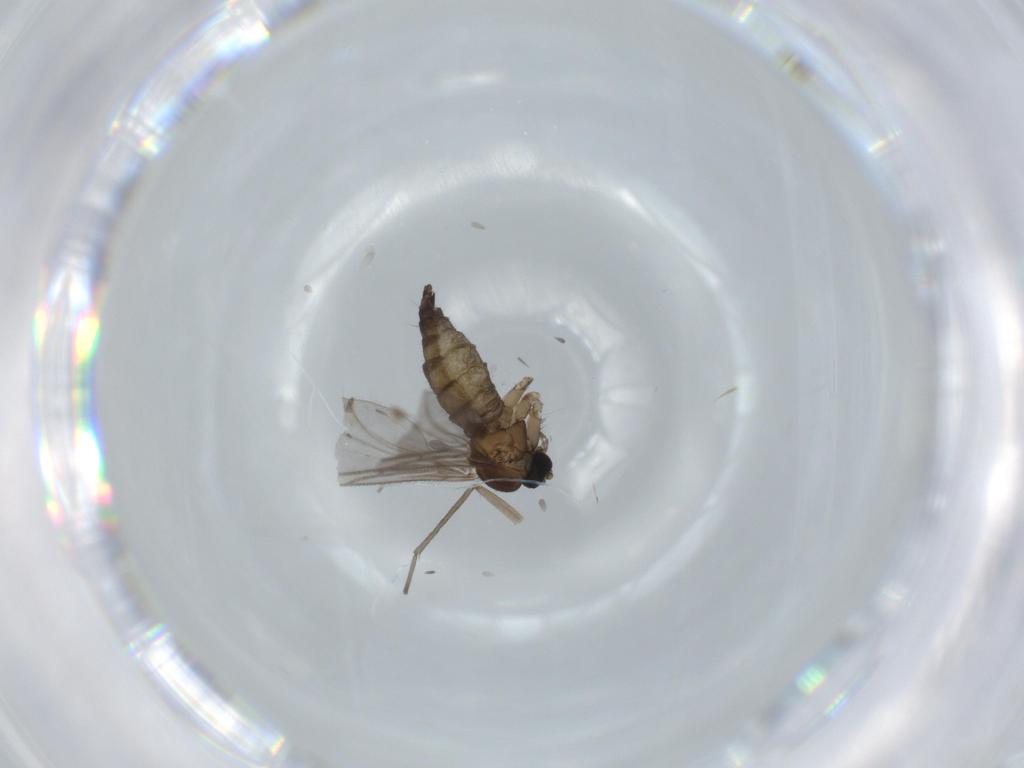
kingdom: Animalia
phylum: Arthropoda
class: Insecta
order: Diptera
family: Sciaridae
